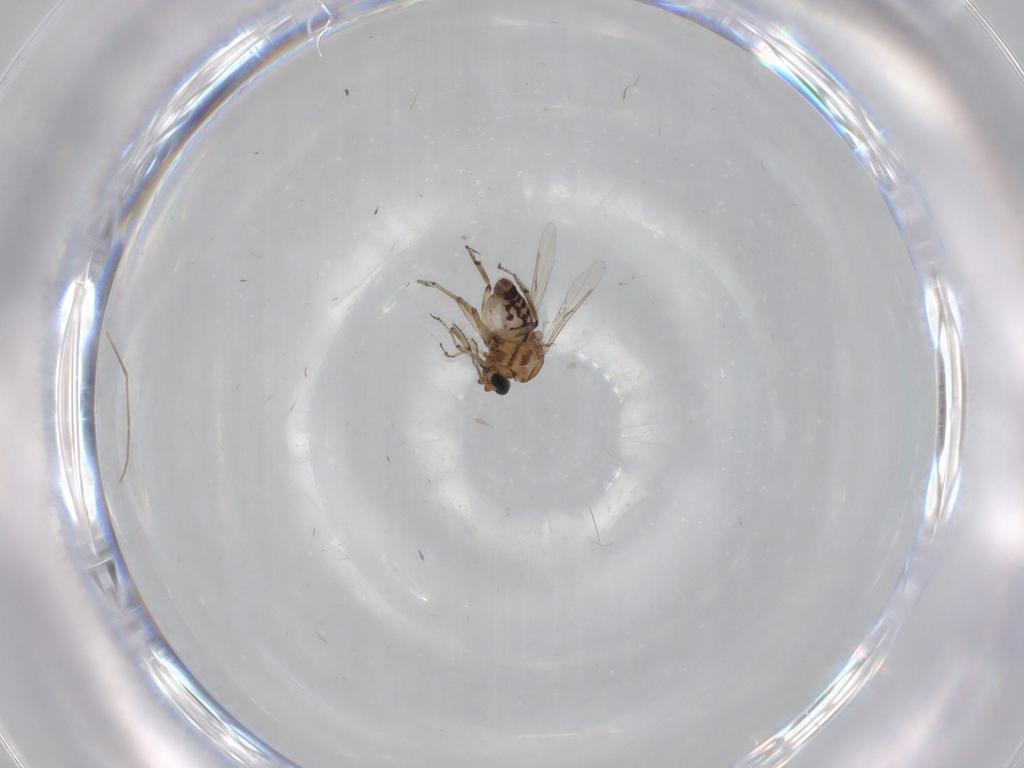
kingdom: Animalia
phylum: Arthropoda
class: Insecta
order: Diptera
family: Ceratopogonidae
